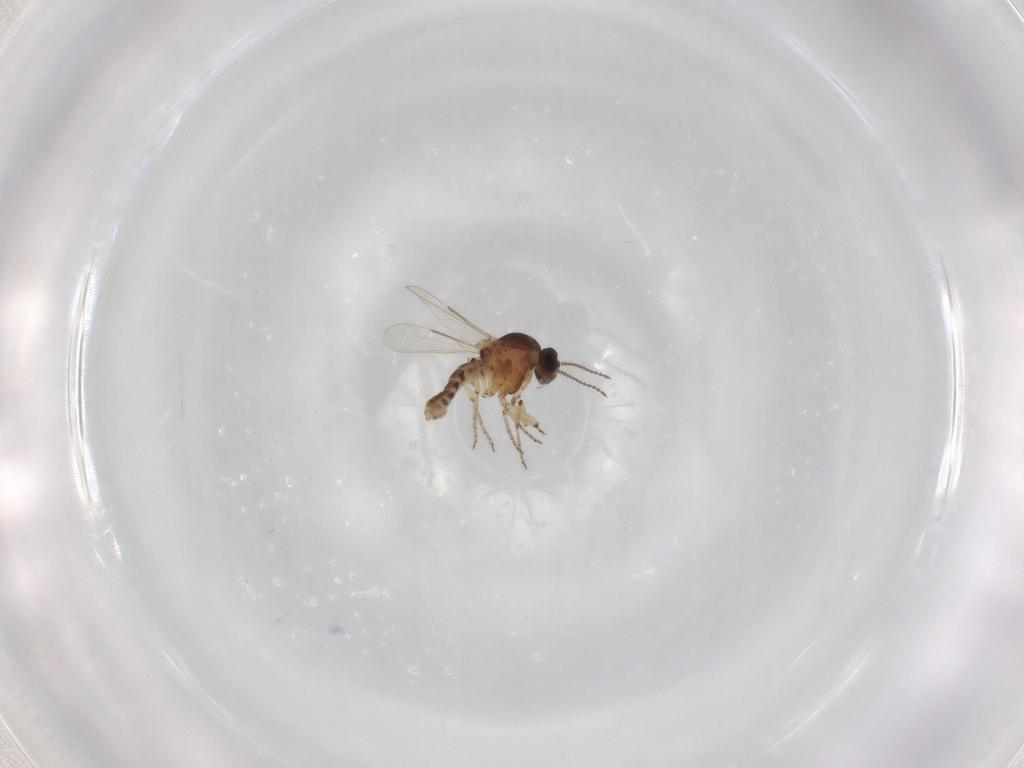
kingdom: Animalia
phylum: Arthropoda
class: Insecta
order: Diptera
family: Ceratopogonidae
